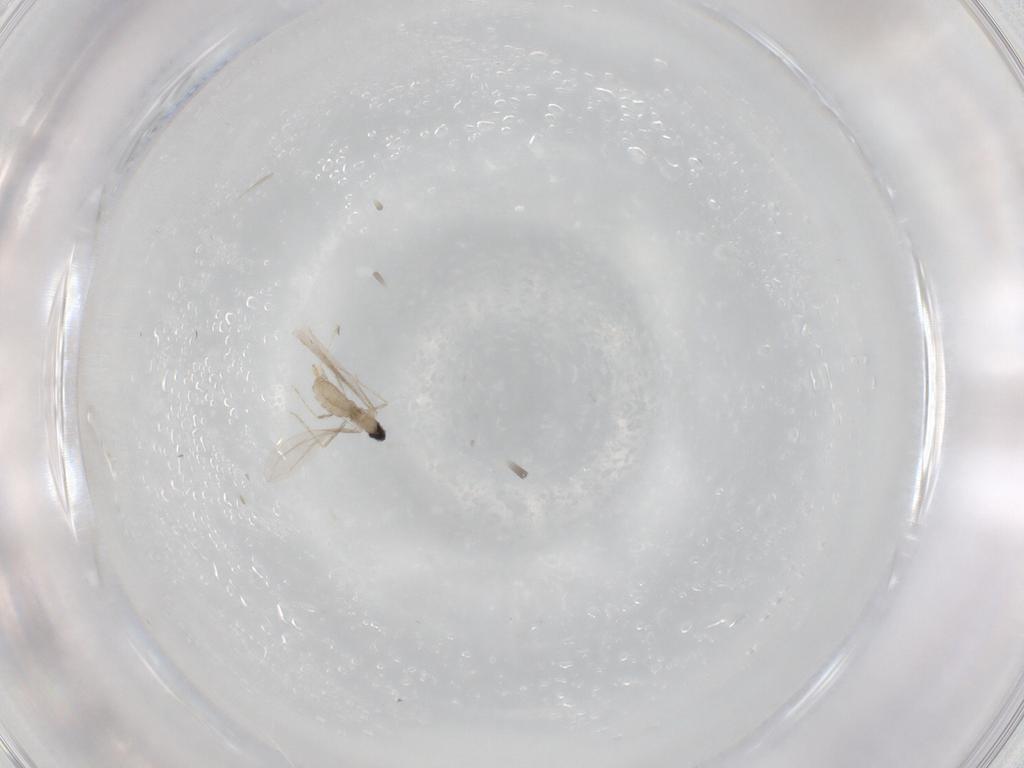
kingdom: Animalia
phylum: Arthropoda
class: Insecta
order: Diptera
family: Cecidomyiidae
